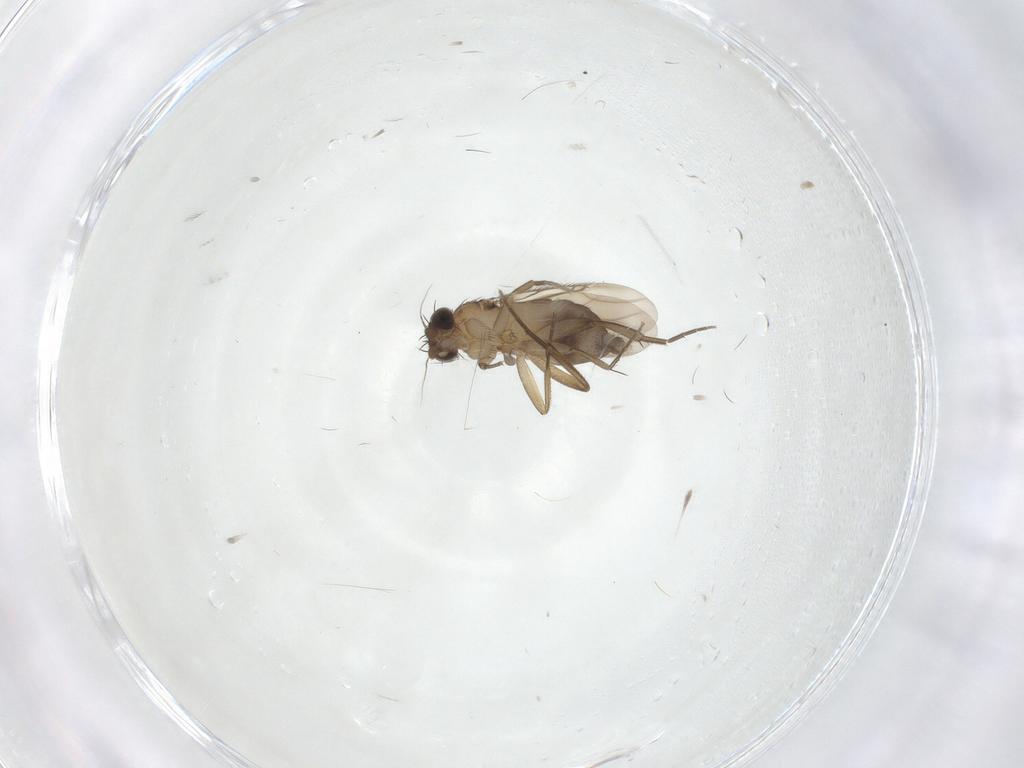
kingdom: Animalia
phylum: Arthropoda
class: Insecta
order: Diptera
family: Phoridae
